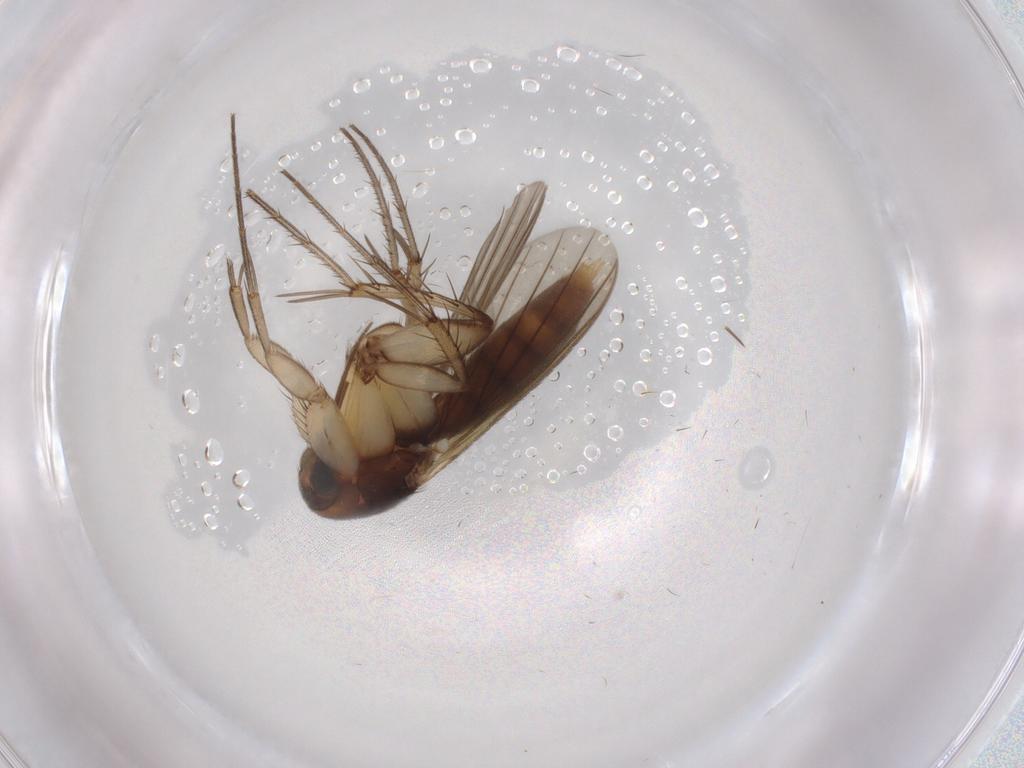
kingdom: Animalia
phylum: Arthropoda
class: Insecta
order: Diptera
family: Mycetophilidae
